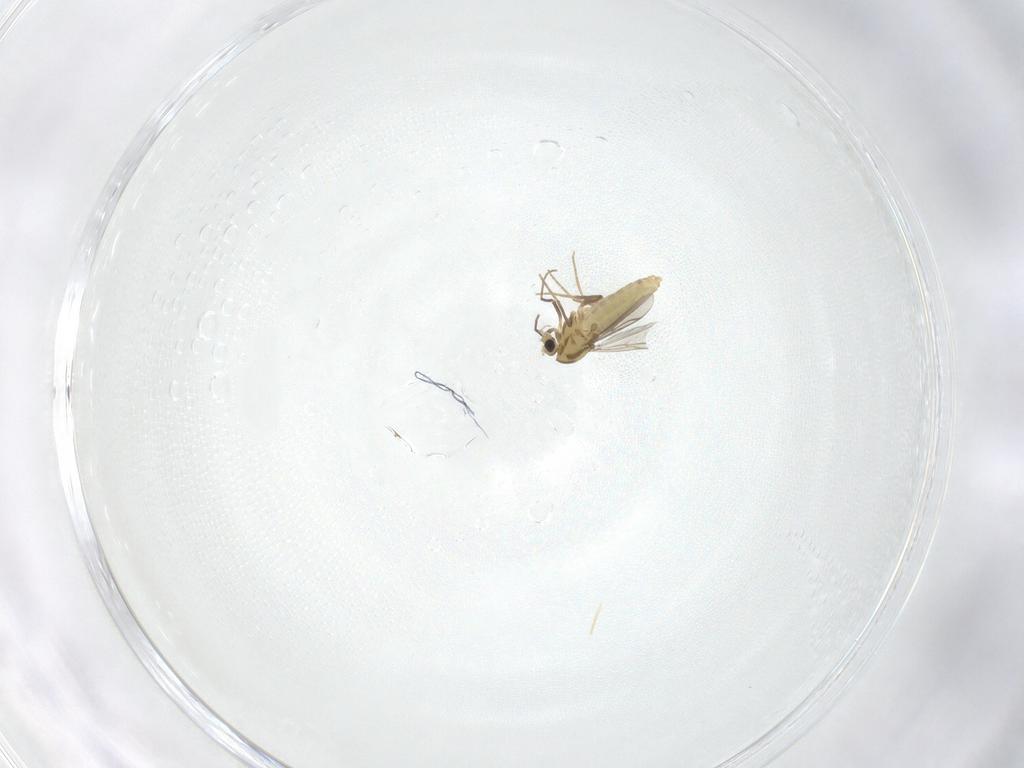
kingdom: Animalia
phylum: Arthropoda
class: Insecta
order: Diptera
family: Chironomidae
